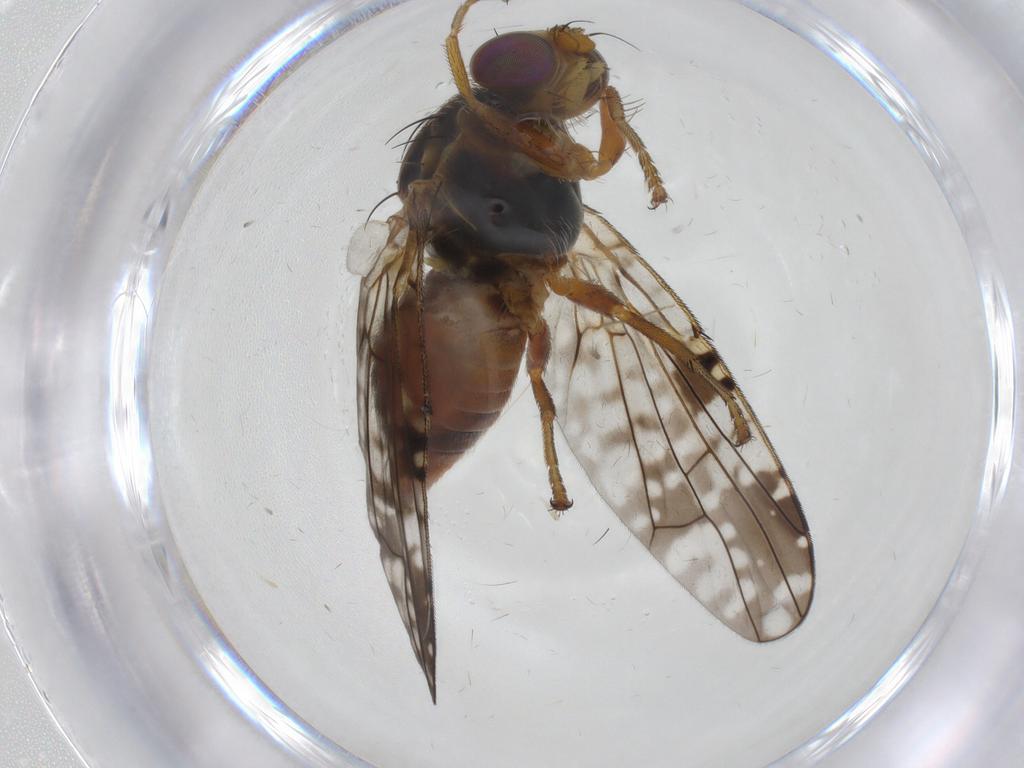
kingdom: Animalia
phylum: Arthropoda
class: Insecta
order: Diptera
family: Tephritidae
